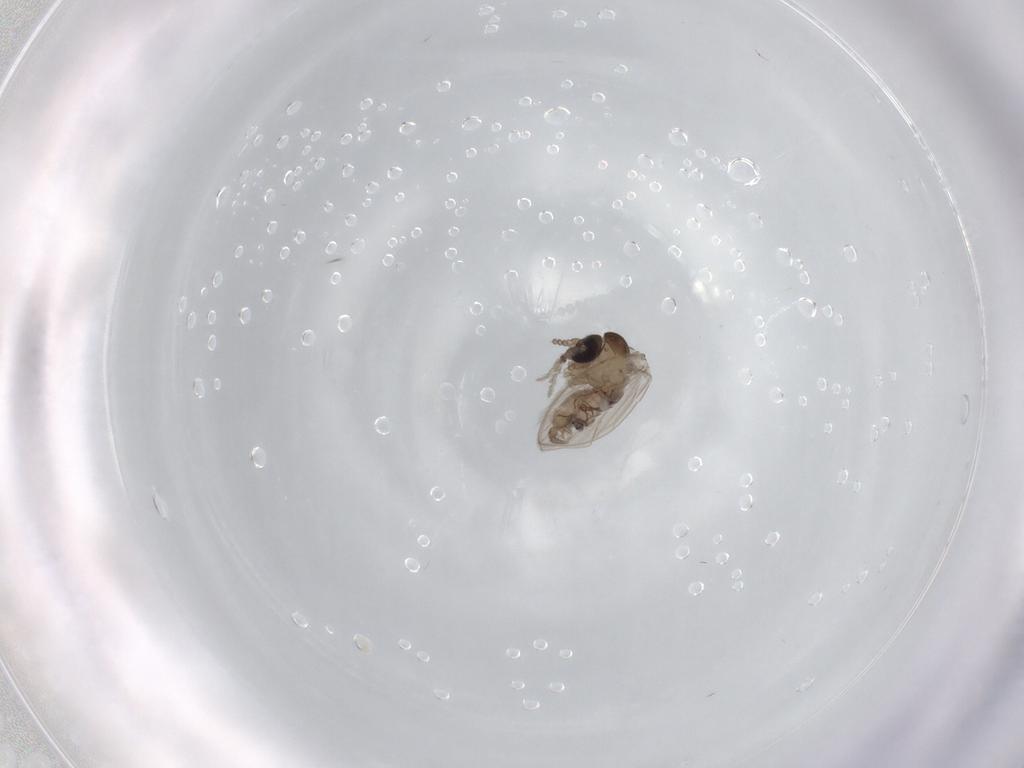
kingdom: Animalia
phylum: Arthropoda
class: Insecta
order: Diptera
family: Psychodidae
